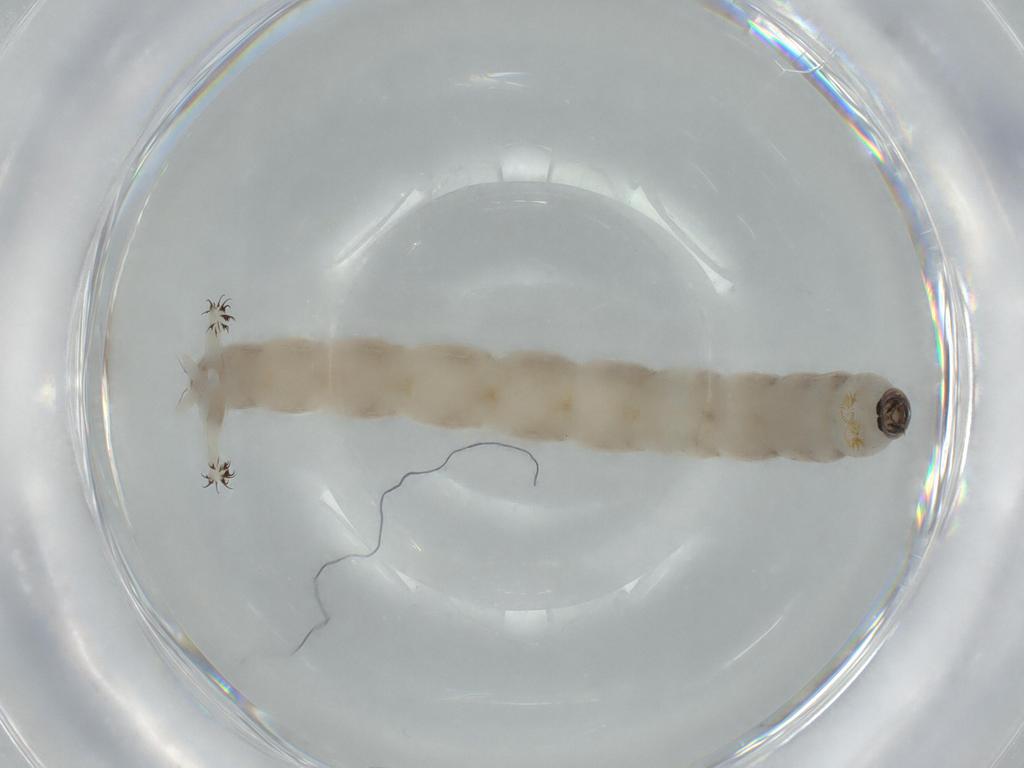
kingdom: Animalia
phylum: Arthropoda
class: Insecta
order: Diptera
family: Chironomidae
